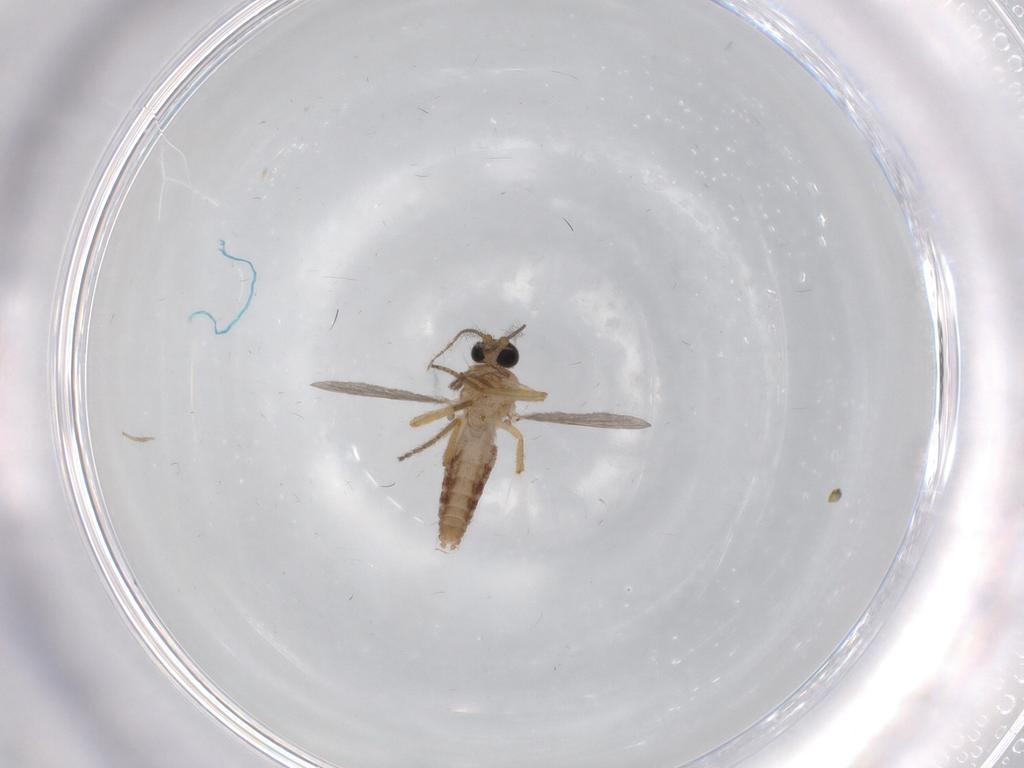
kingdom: Animalia
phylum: Arthropoda
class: Insecta
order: Diptera
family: Ceratopogonidae
